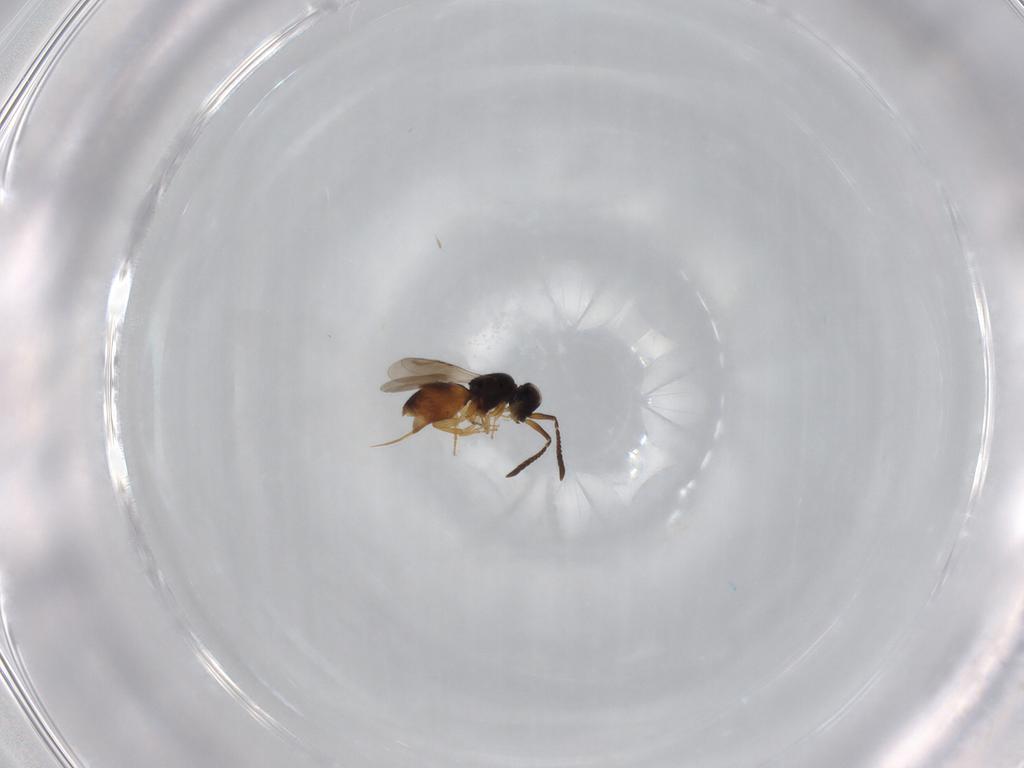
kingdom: Animalia
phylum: Arthropoda
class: Insecta
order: Hymenoptera
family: Ceraphronidae
